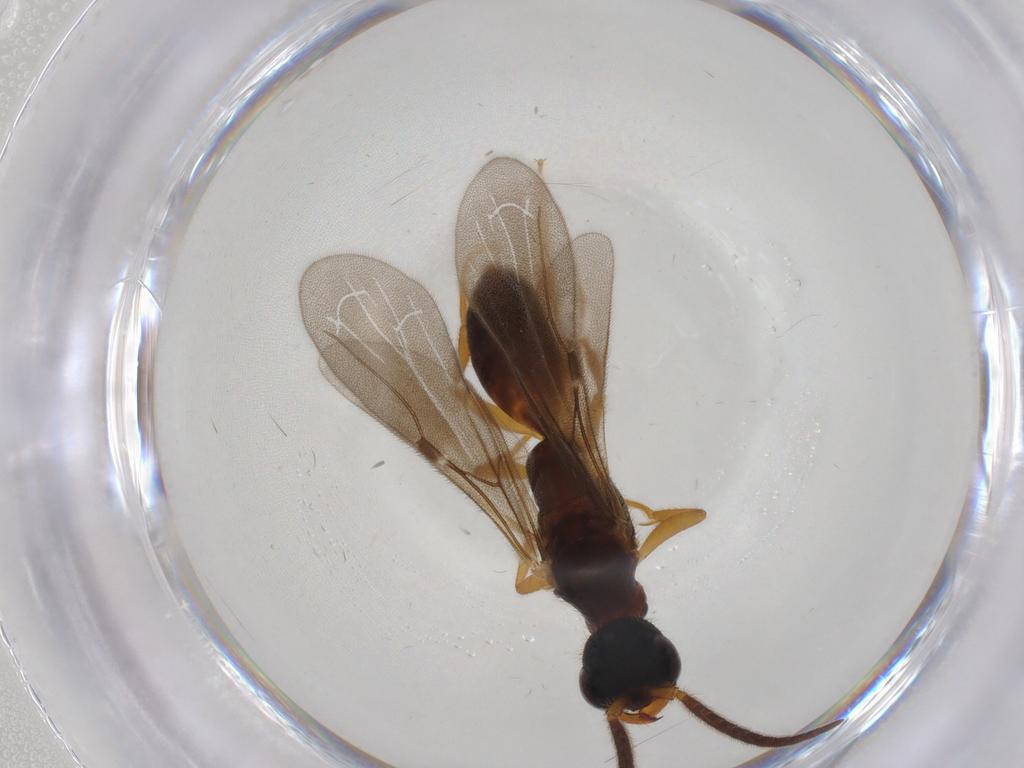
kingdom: Animalia
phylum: Arthropoda
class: Insecta
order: Hymenoptera
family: Bethylidae
